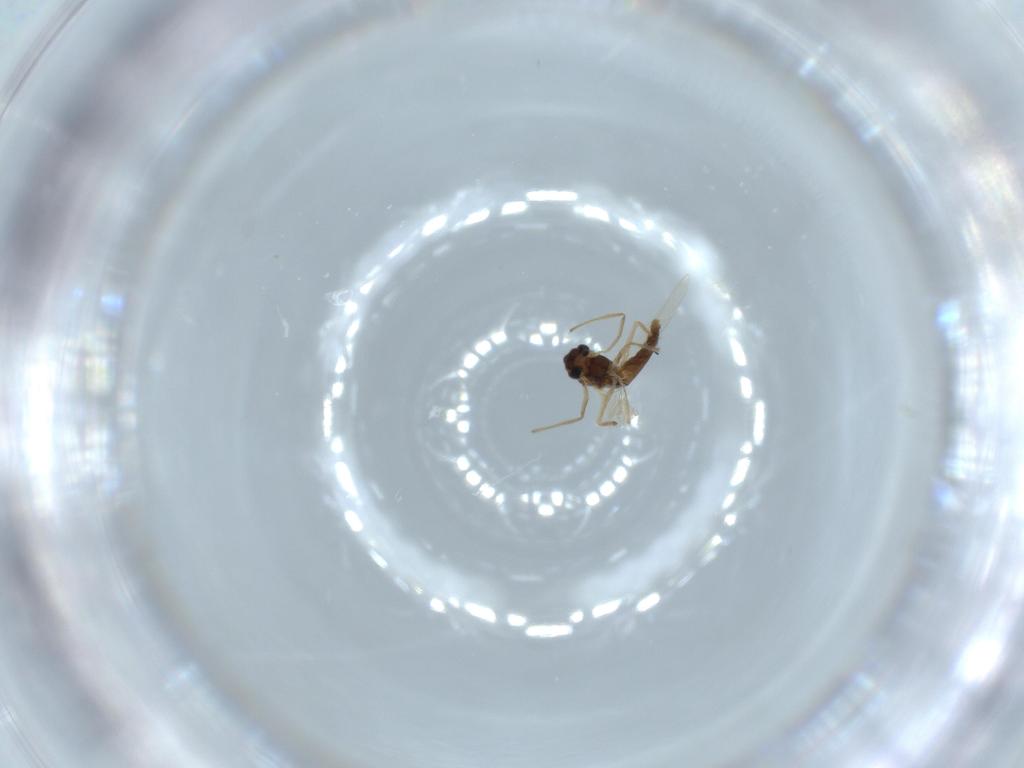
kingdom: Animalia
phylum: Arthropoda
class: Insecta
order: Diptera
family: Chironomidae
